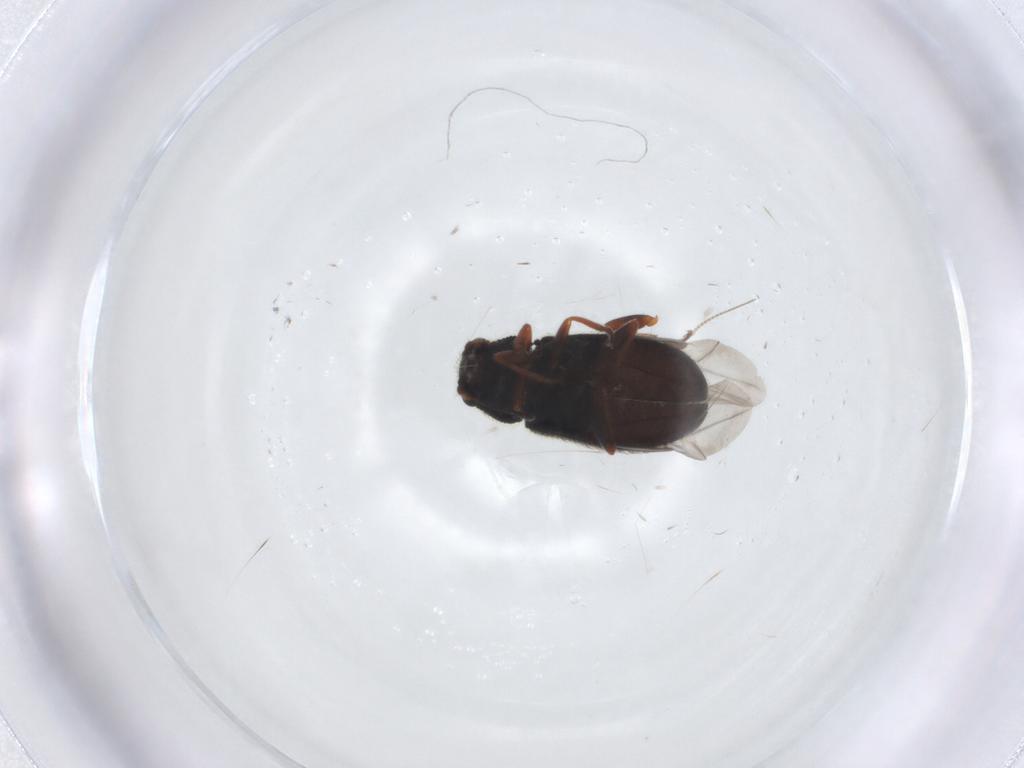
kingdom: Animalia
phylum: Arthropoda
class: Insecta
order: Coleoptera
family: Melyridae
